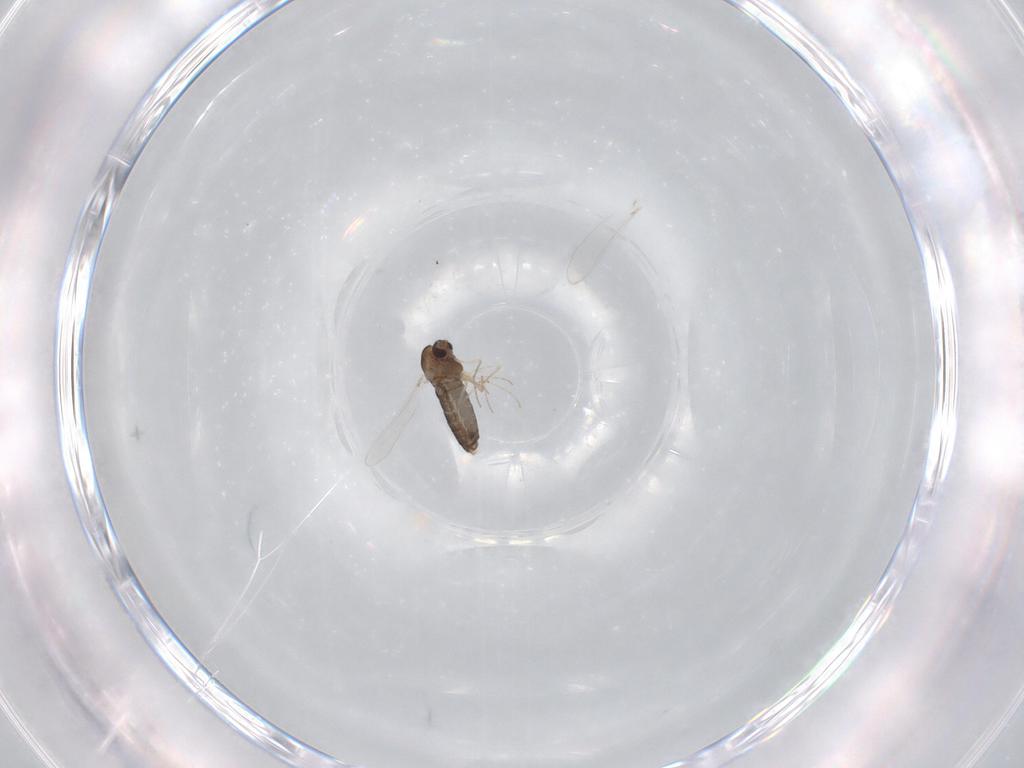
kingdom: Animalia
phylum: Arthropoda
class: Insecta
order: Diptera
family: Chironomidae
